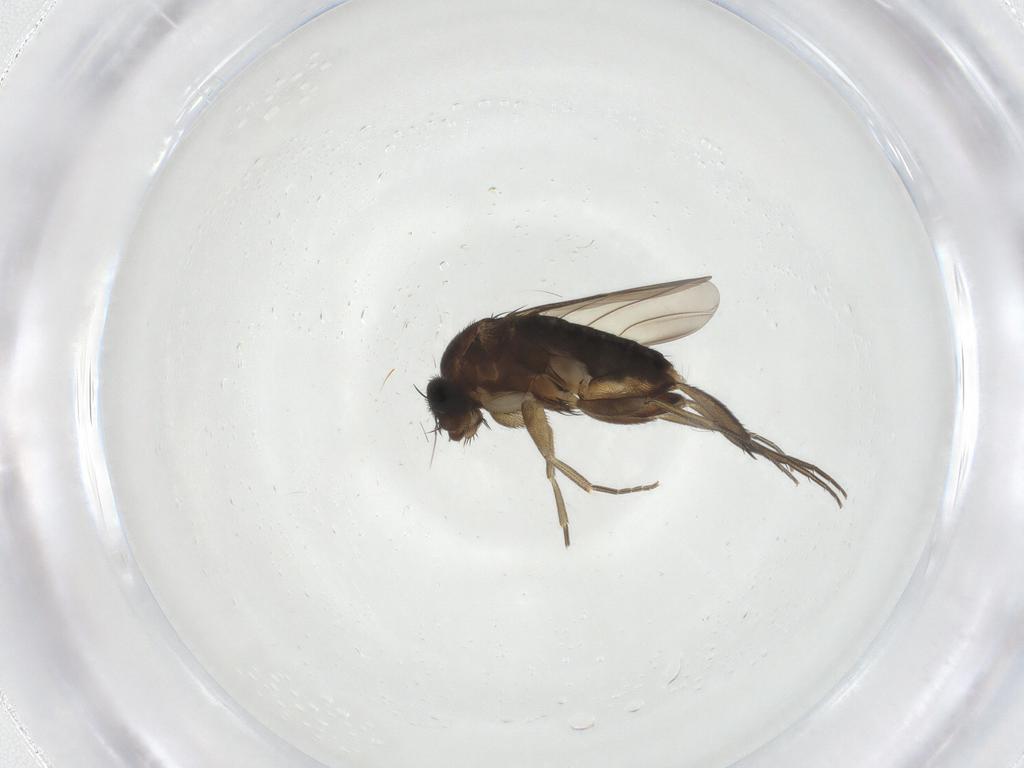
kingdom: Animalia
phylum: Arthropoda
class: Insecta
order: Diptera
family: Phoridae
